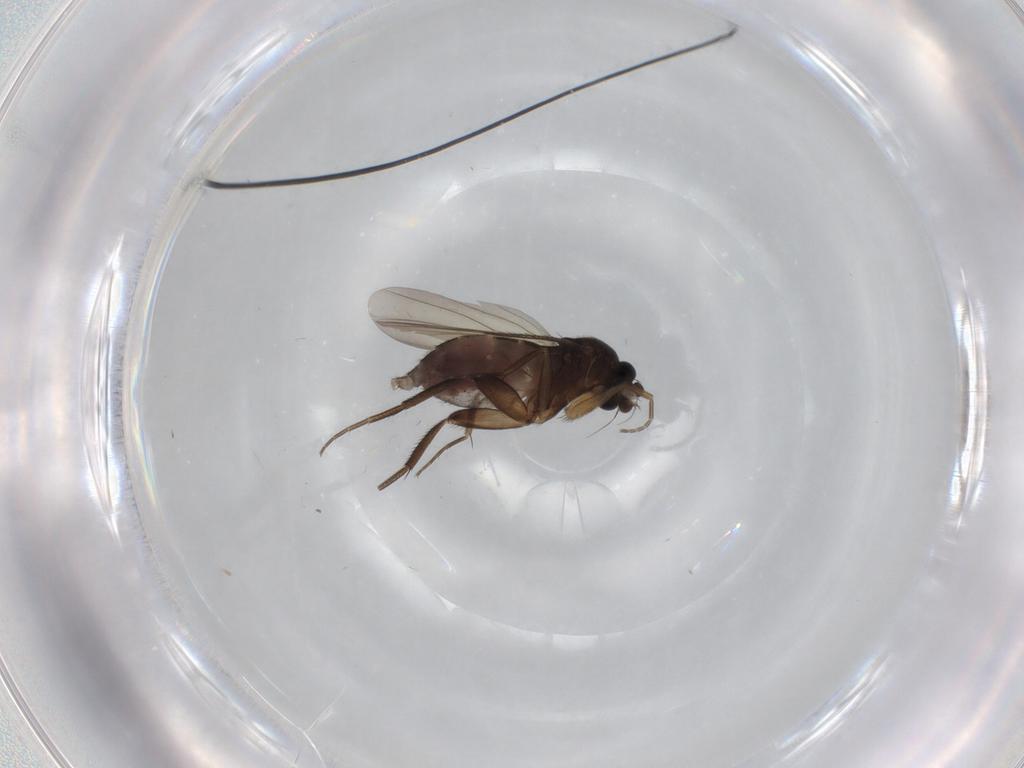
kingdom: Animalia
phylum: Arthropoda
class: Insecta
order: Diptera
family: Phoridae
